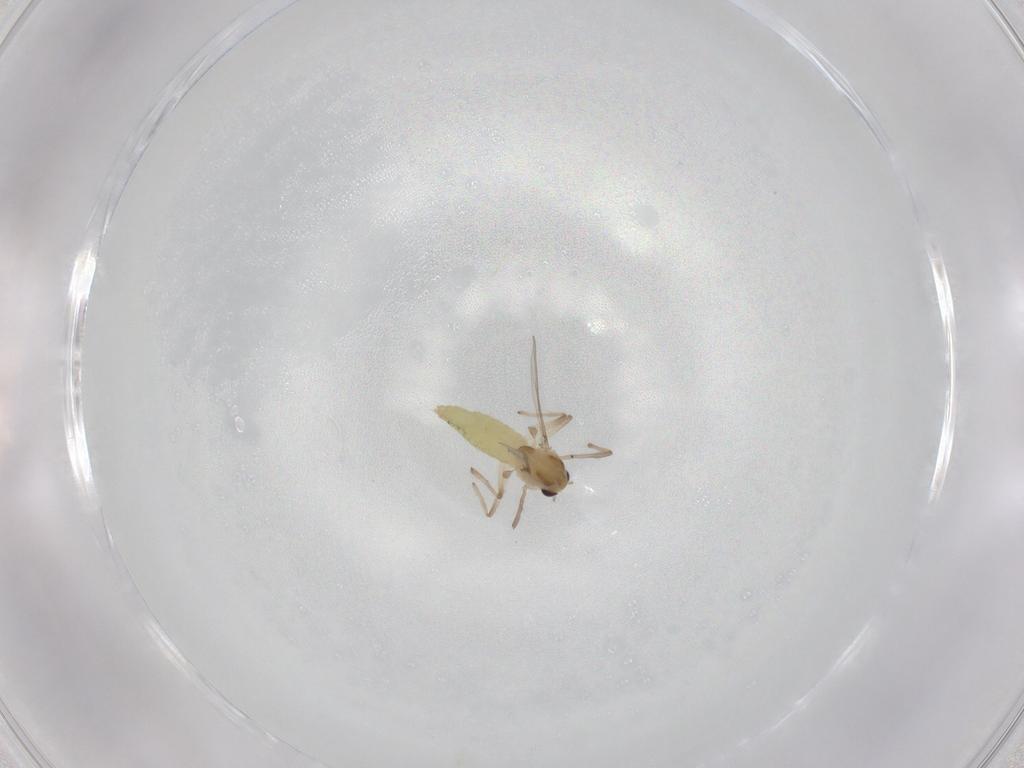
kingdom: Animalia
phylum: Arthropoda
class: Insecta
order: Diptera
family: Chironomidae
